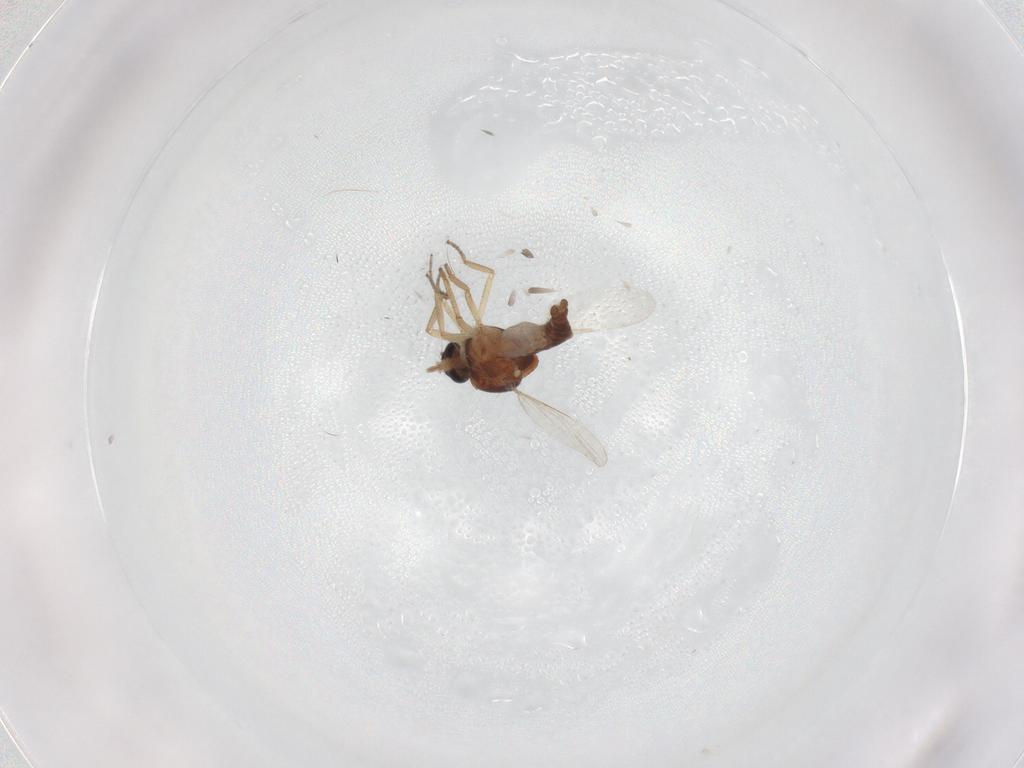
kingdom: Animalia
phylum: Arthropoda
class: Insecta
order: Diptera
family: Ceratopogonidae
